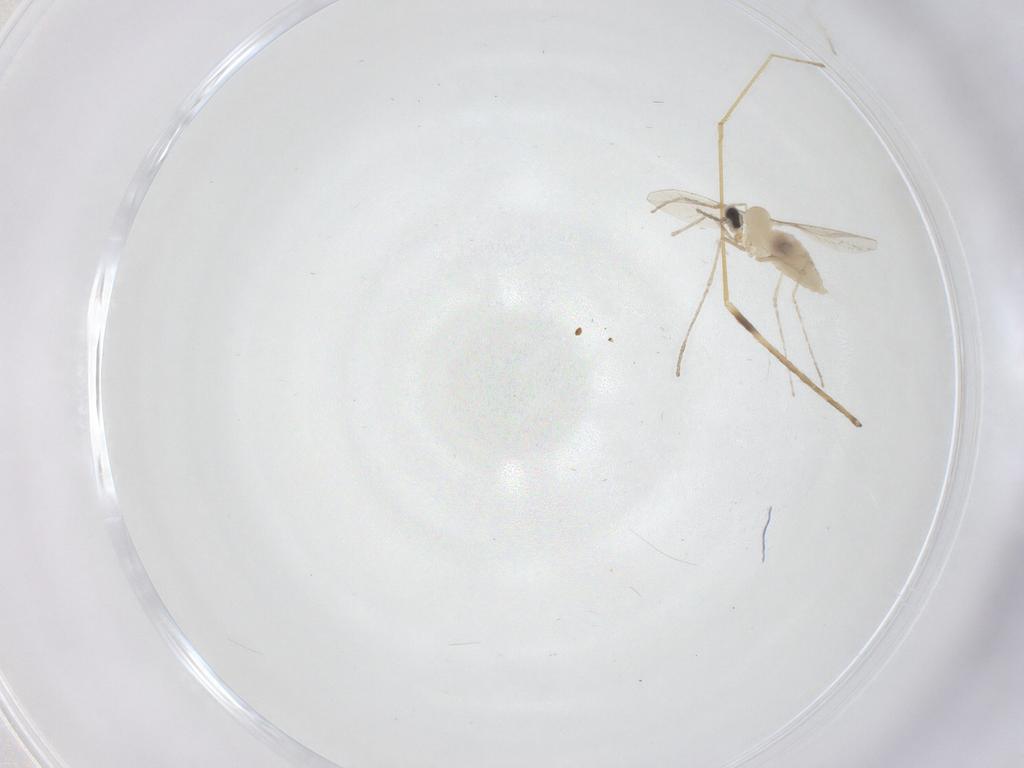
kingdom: Animalia
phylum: Arthropoda
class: Insecta
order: Diptera
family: Limoniidae
